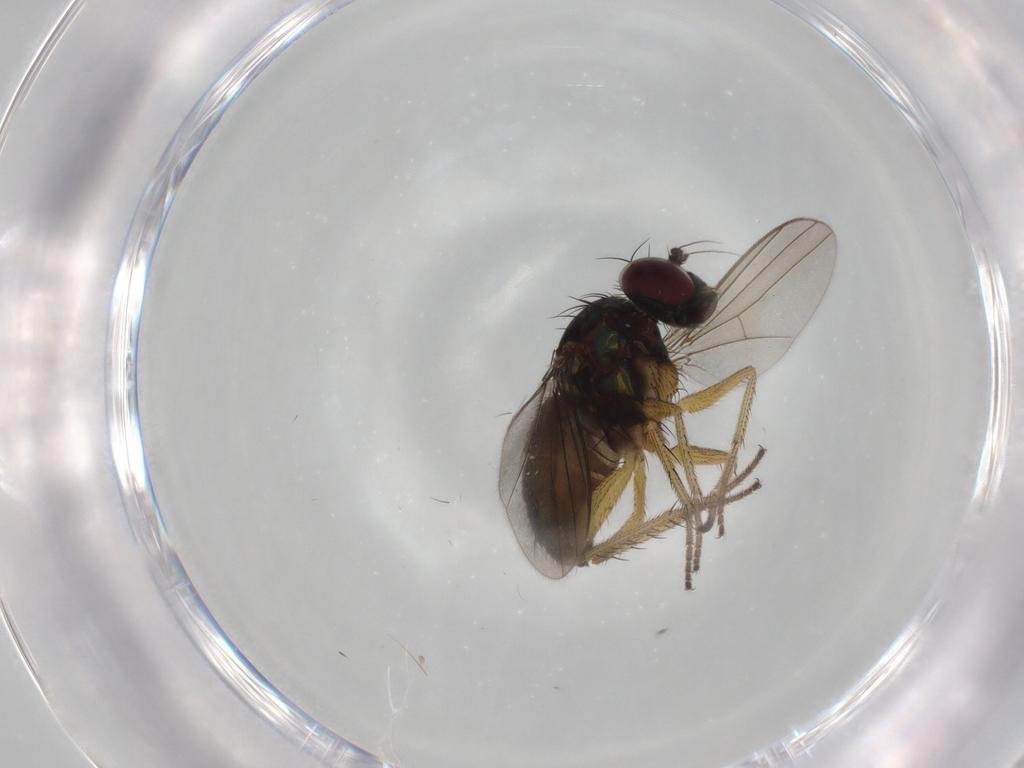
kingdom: Animalia
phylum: Arthropoda
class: Insecta
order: Diptera
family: Dolichopodidae
